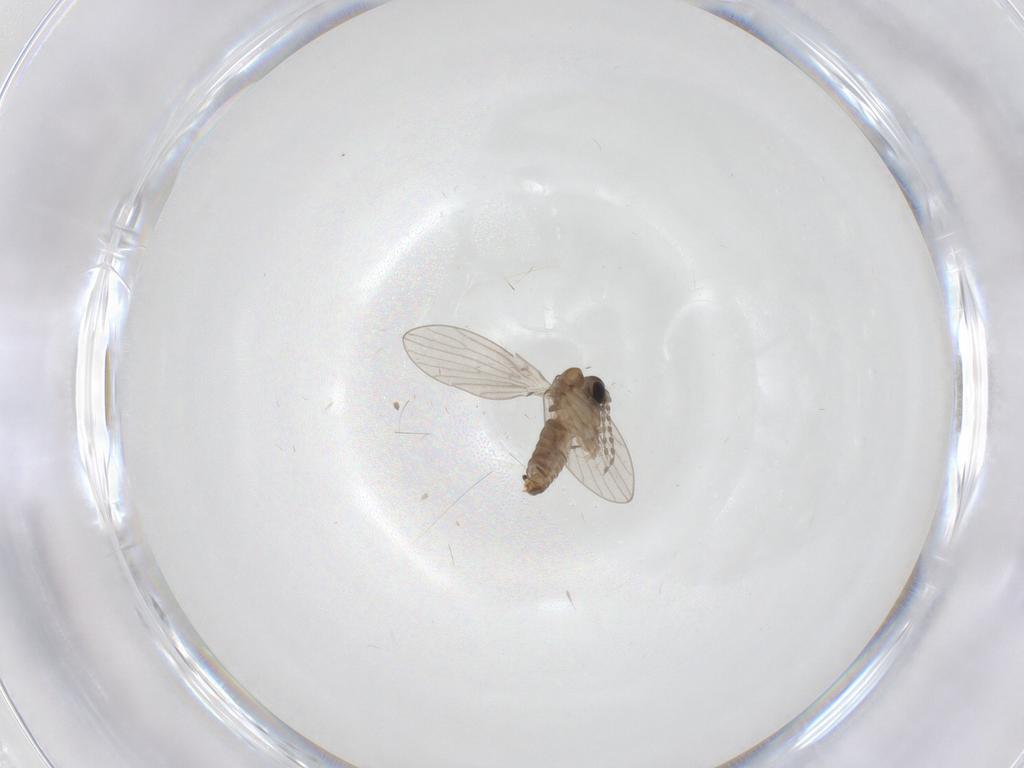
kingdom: Animalia
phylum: Arthropoda
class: Insecta
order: Diptera
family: Psychodidae
